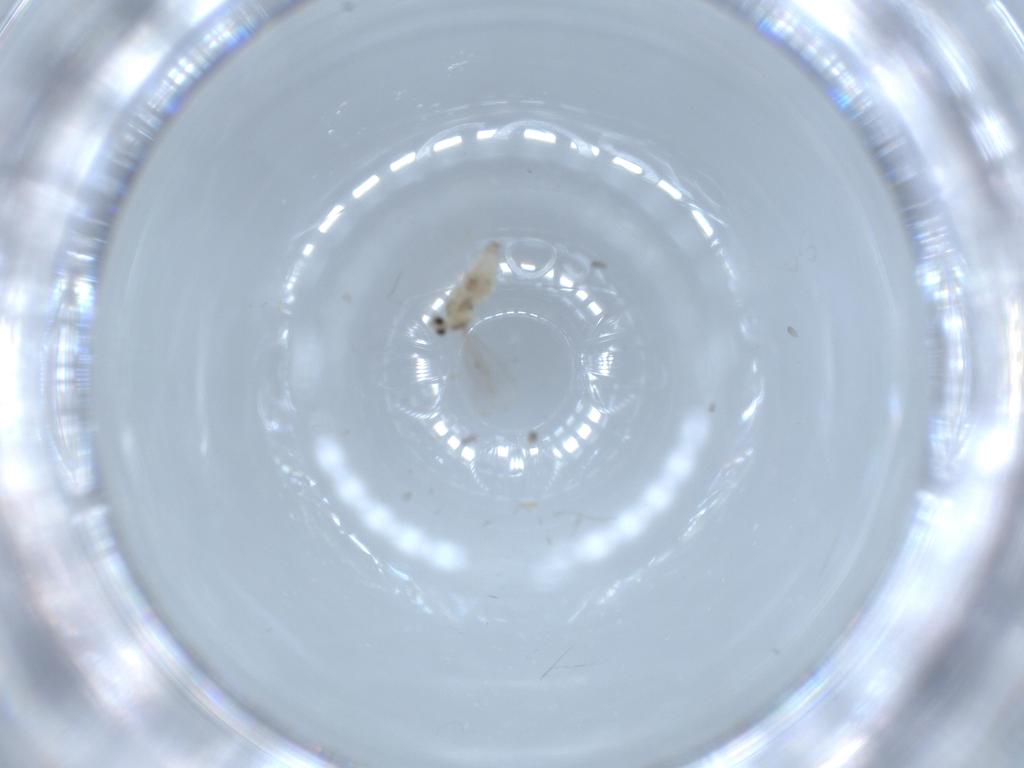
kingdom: Animalia
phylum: Arthropoda
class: Insecta
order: Diptera
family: Cecidomyiidae
